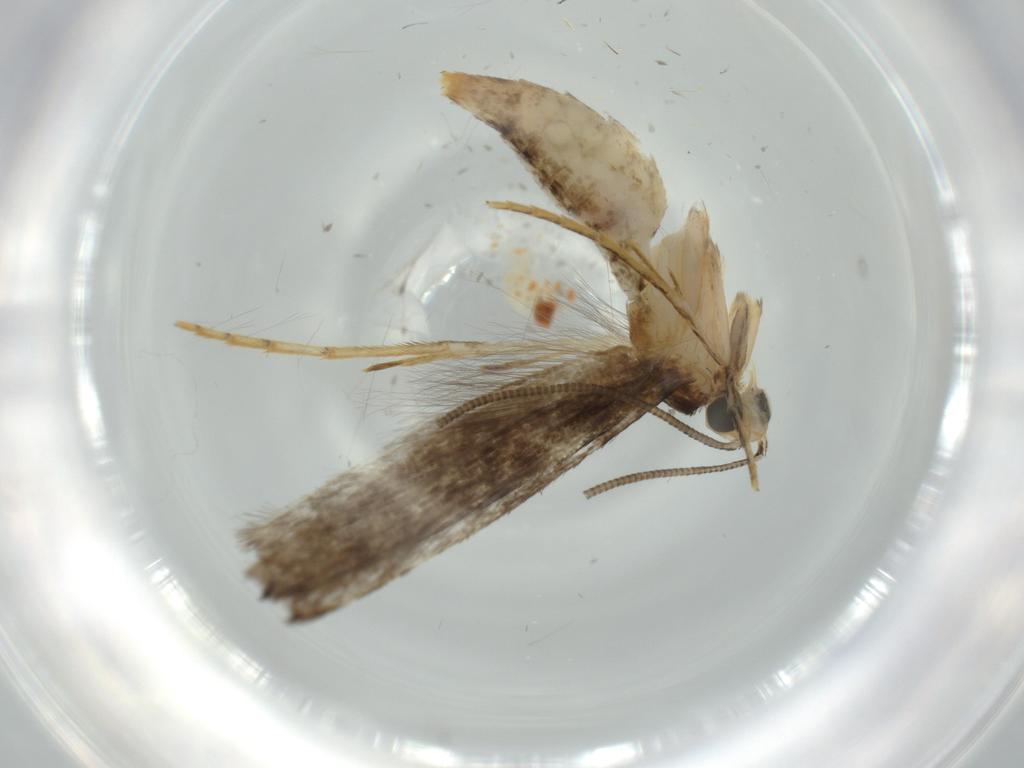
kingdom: Animalia
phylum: Arthropoda
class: Insecta
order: Lepidoptera
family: Tineidae
